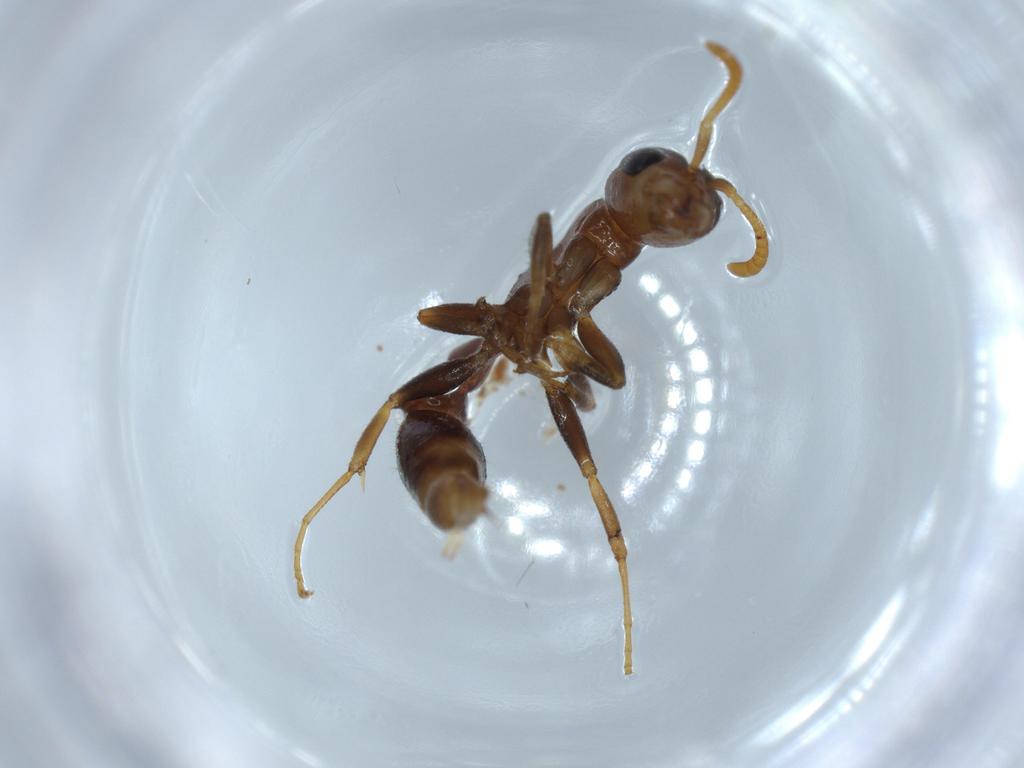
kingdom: Animalia
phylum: Arthropoda
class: Insecta
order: Hymenoptera
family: Formicidae
